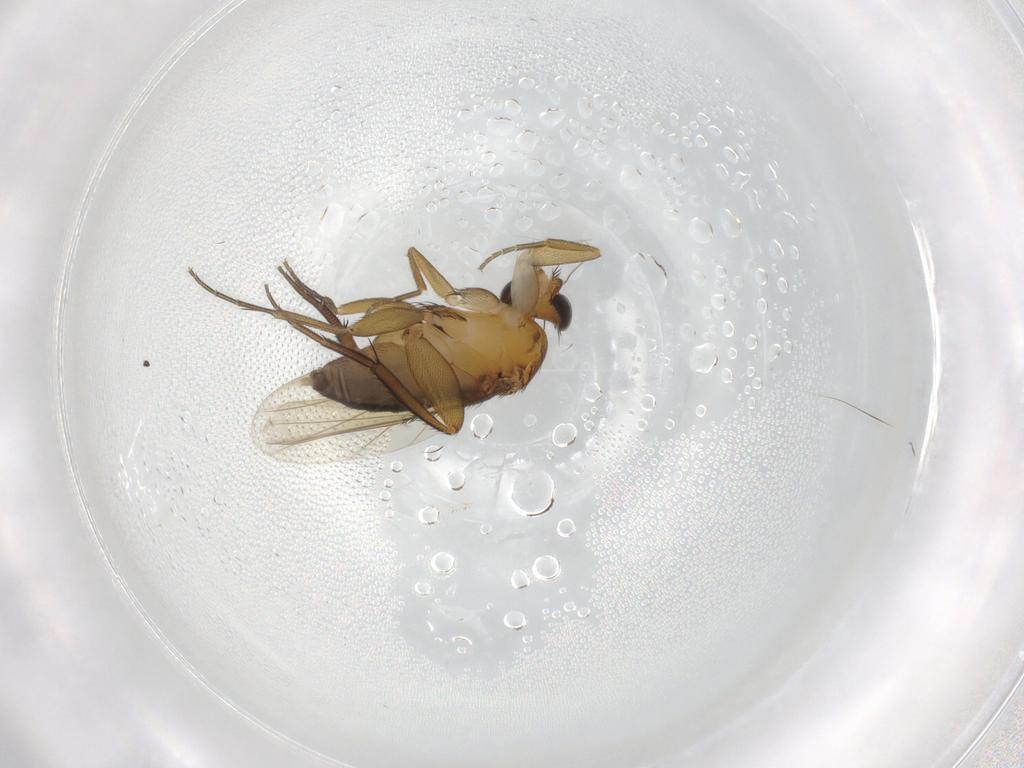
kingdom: Animalia
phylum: Arthropoda
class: Insecta
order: Diptera
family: Phoridae
